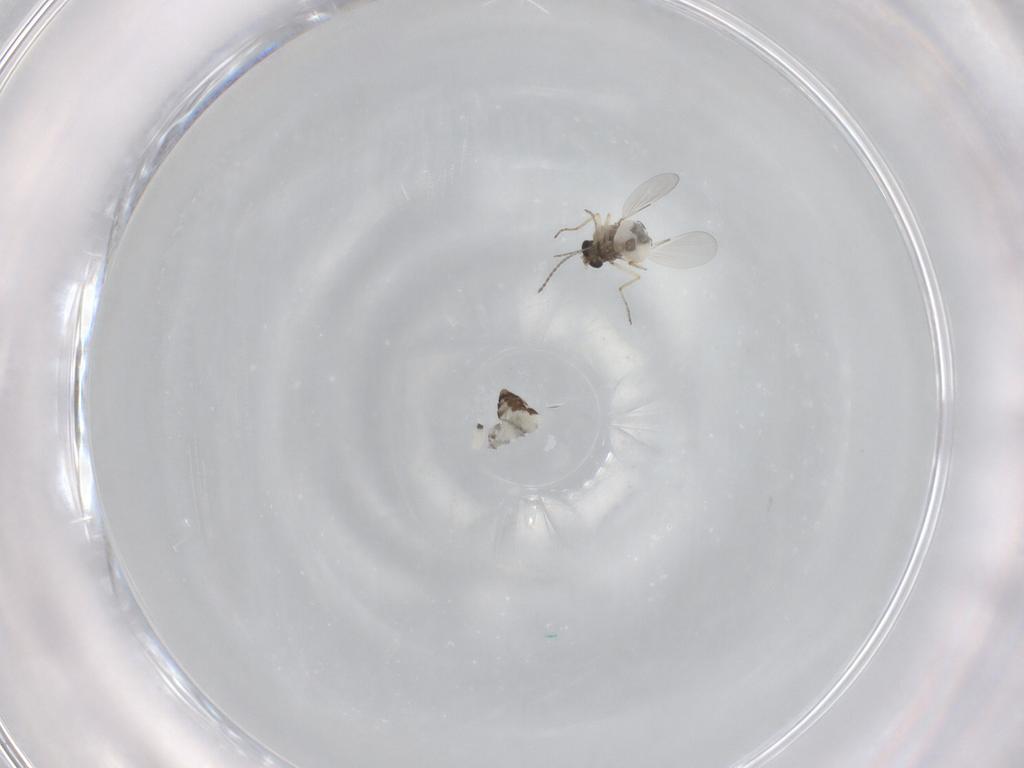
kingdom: Animalia
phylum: Arthropoda
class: Insecta
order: Diptera
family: Ceratopogonidae
